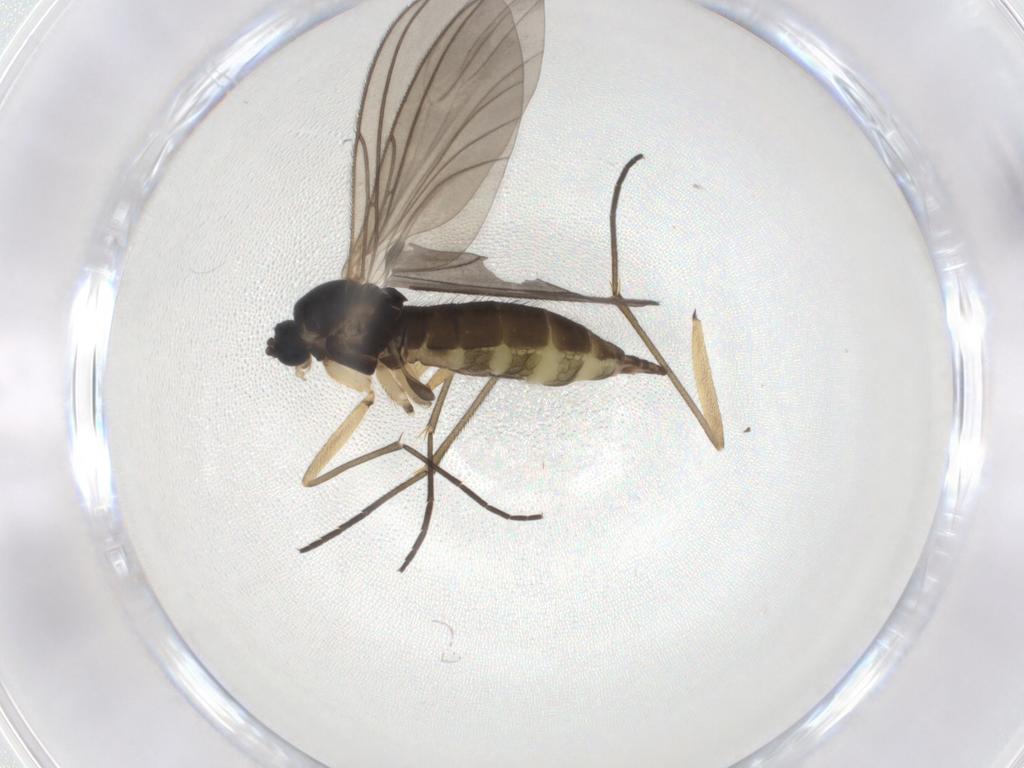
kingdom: Animalia
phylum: Arthropoda
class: Insecta
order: Diptera
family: Sciaridae
